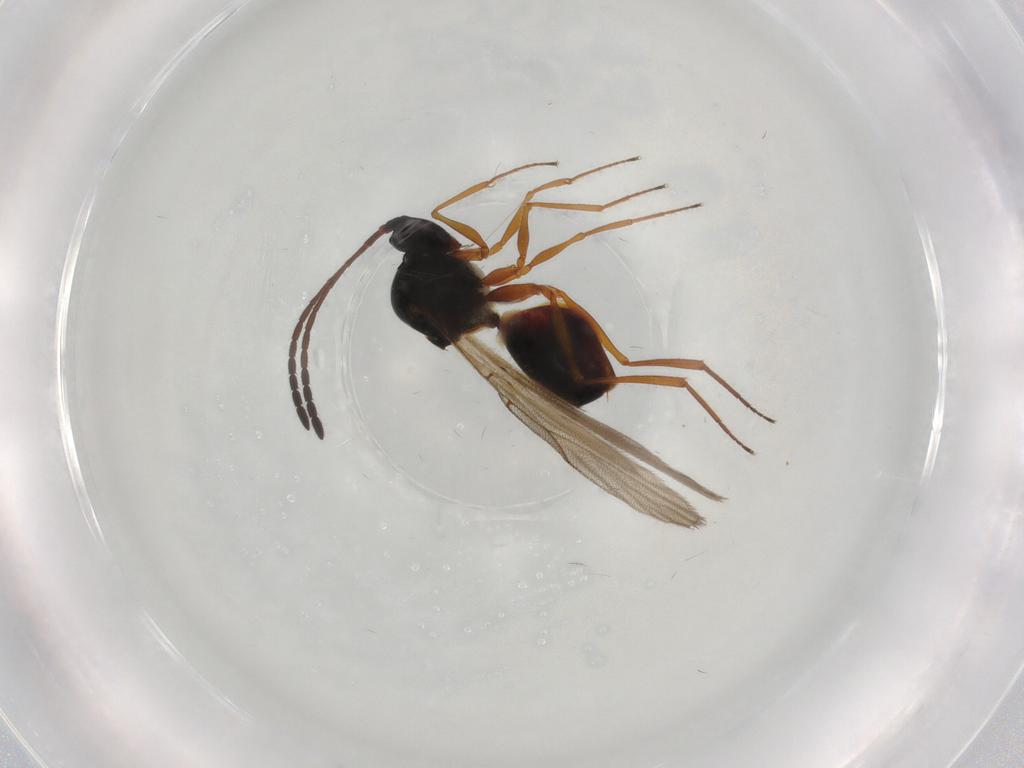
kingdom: Animalia
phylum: Arthropoda
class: Insecta
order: Hymenoptera
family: Figitidae
